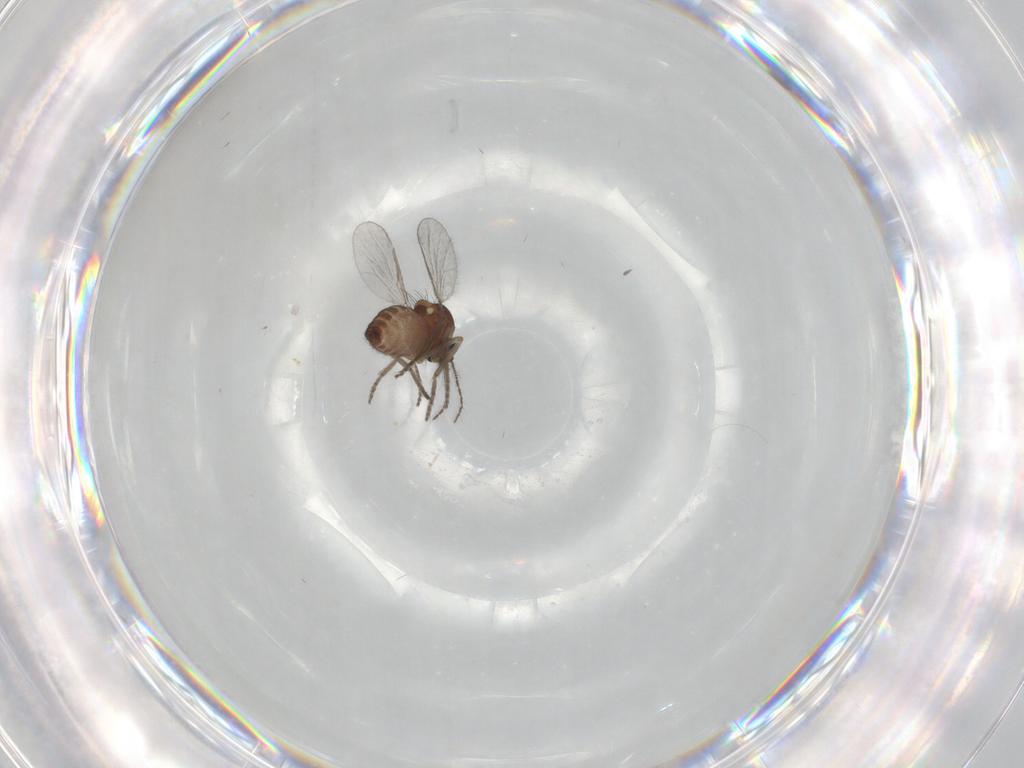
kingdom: Animalia
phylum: Arthropoda
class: Insecta
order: Diptera
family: Ceratopogonidae
